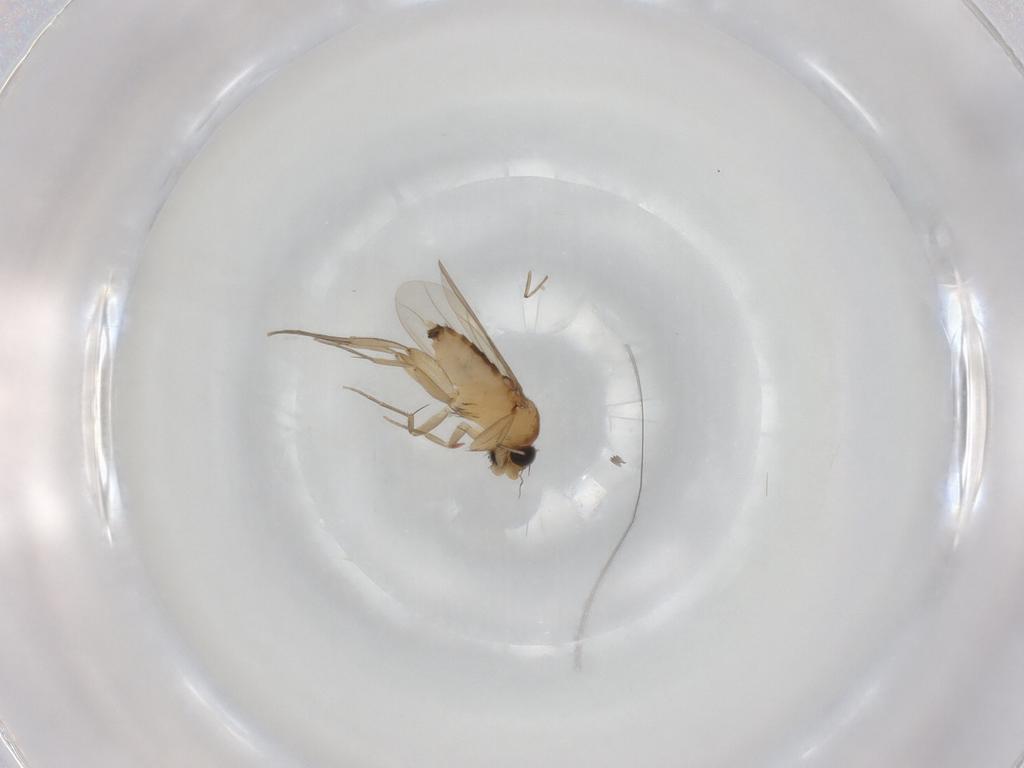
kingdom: Animalia
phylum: Arthropoda
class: Insecta
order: Diptera
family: Phoridae
